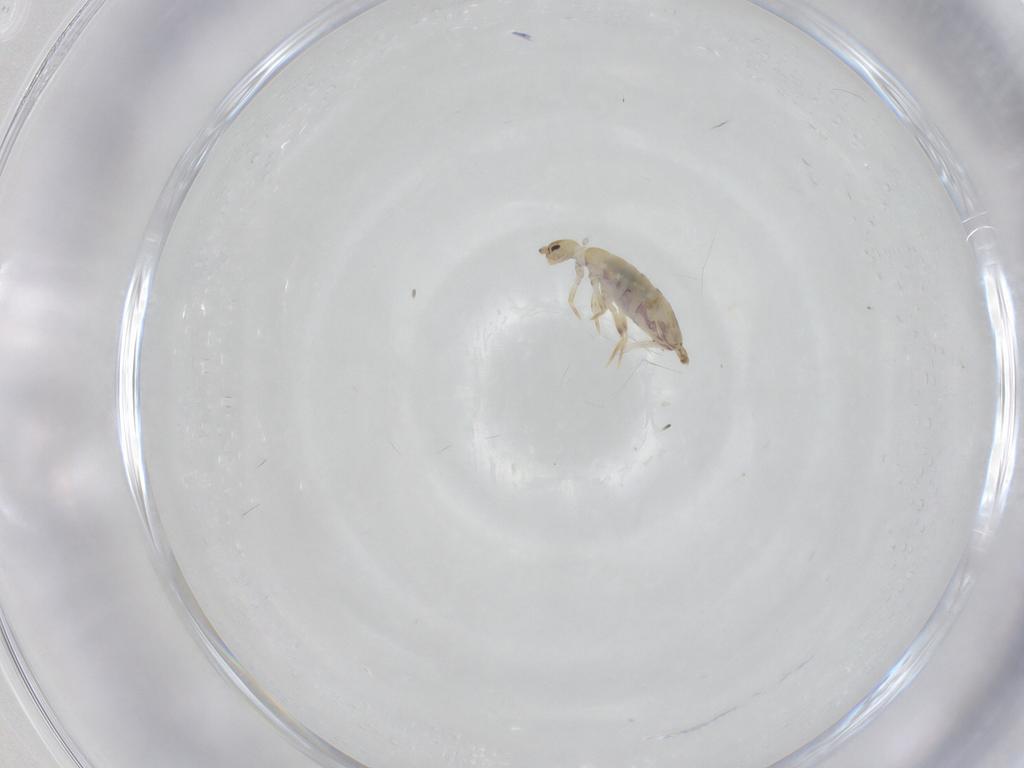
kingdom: Animalia
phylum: Arthropoda
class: Collembola
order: Entomobryomorpha
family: Entomobryidae
